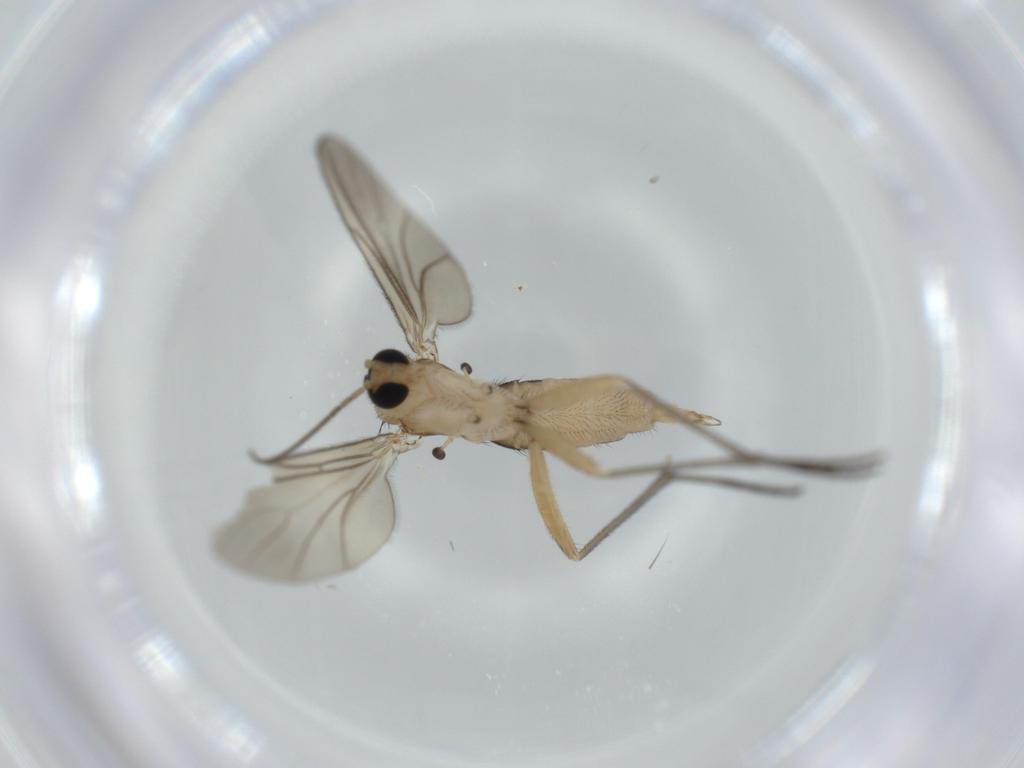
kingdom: Animalia
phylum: Arthropoda
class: Insecta
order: Diptera
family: Sciaridae
